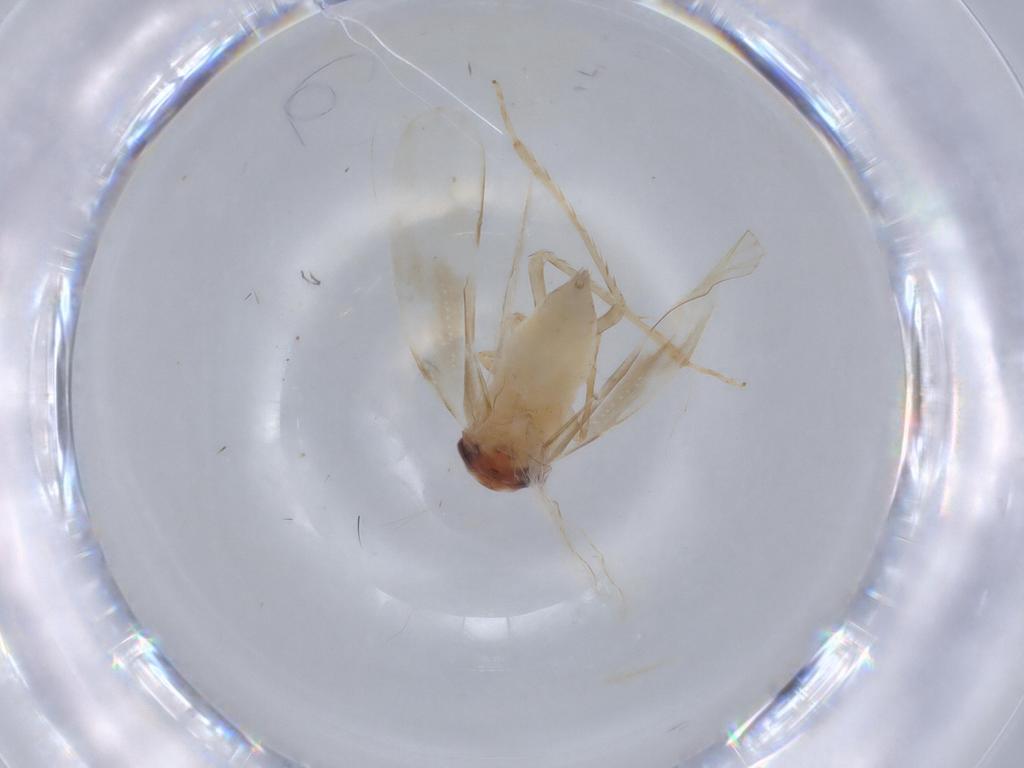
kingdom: Animalia
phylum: Arthropoda
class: Insecta
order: Hemiptera
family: Cicadellidae
